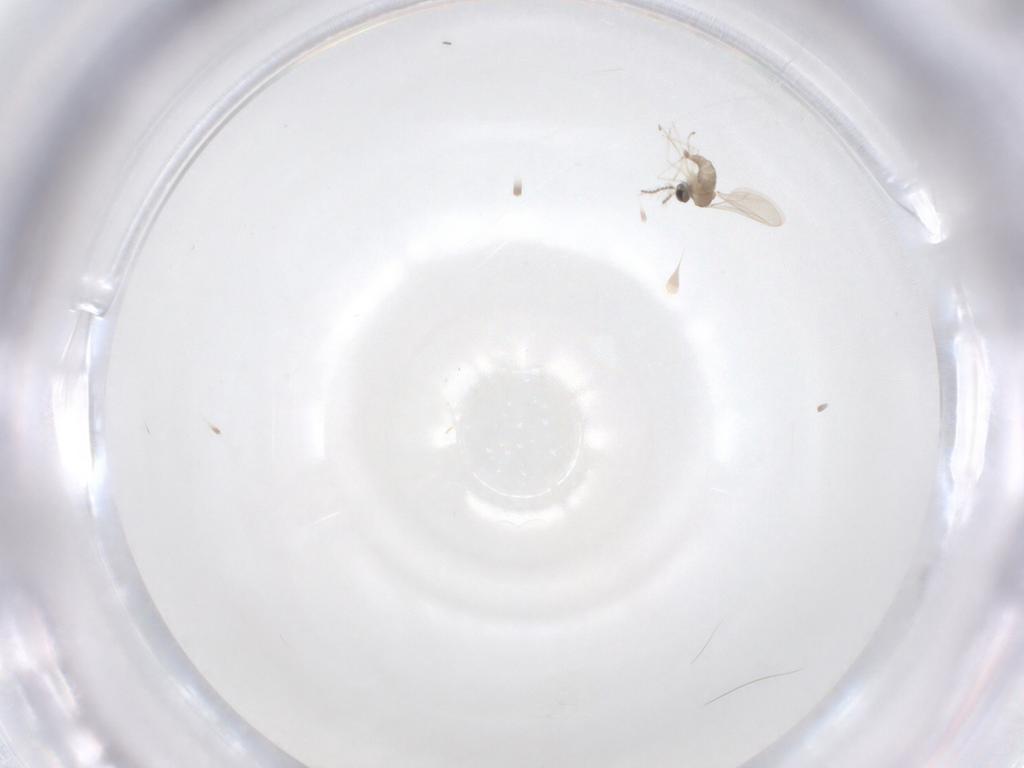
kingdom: Animalia
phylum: Arthropoda
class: Insecta
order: Diptera
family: Cecidomyiidae
